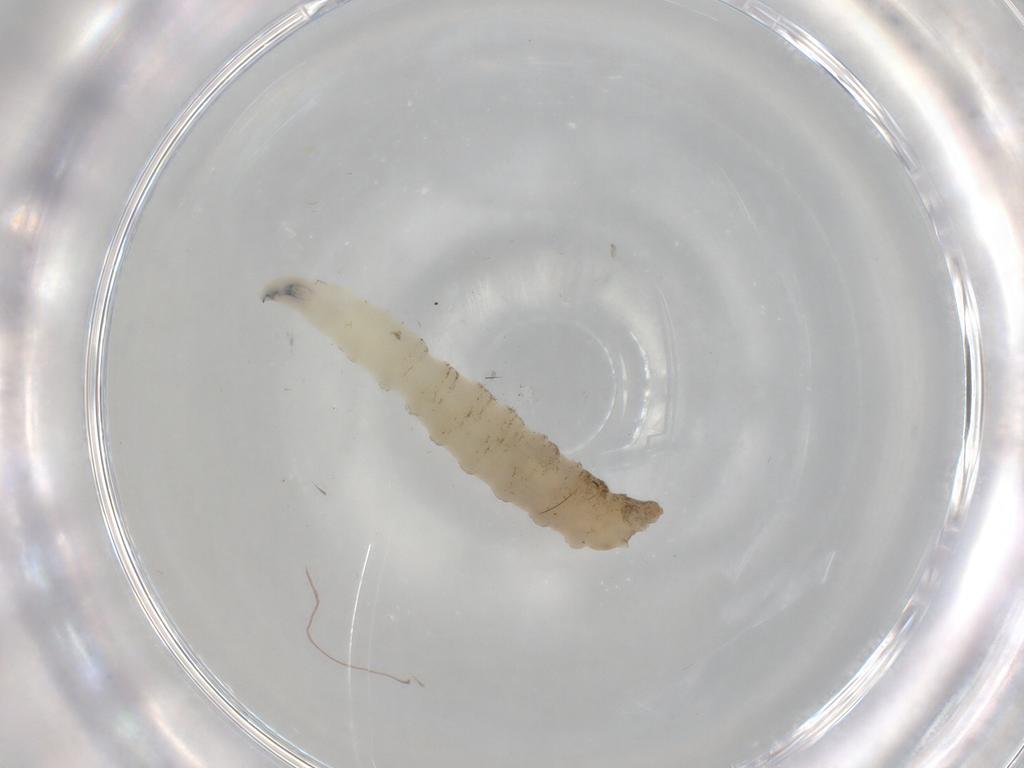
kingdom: Animalia
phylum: Arthropoda
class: Insecta
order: Diptera
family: Drosophilidae
